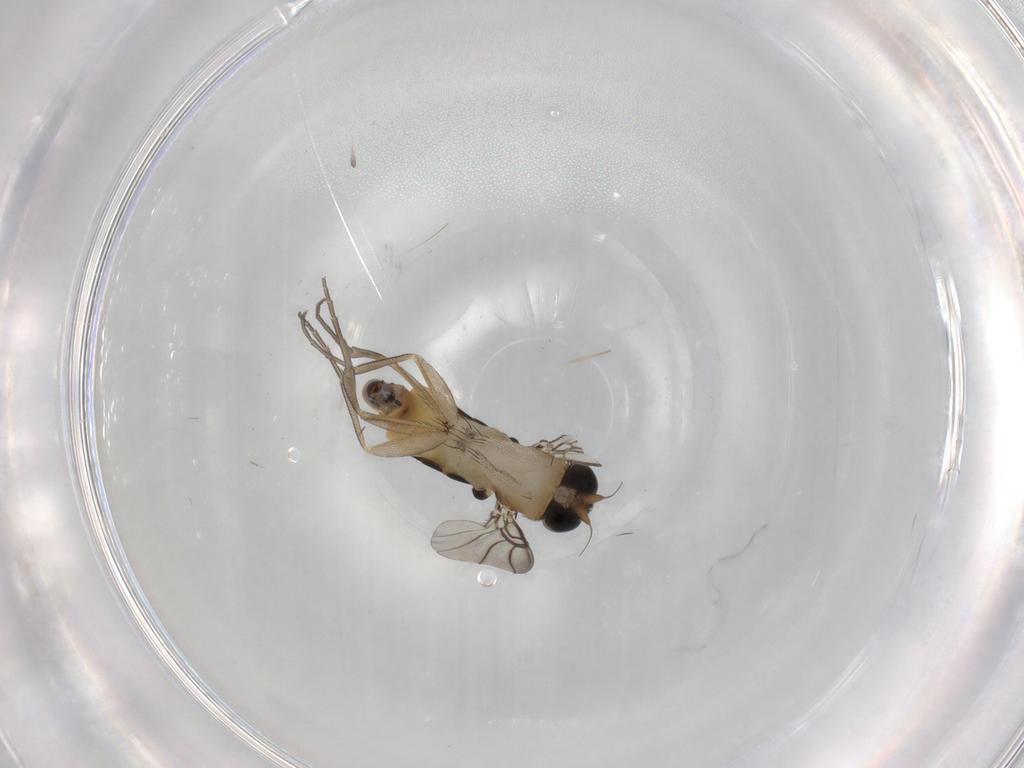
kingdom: Animalia
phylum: Arthropoda
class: Insecta
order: Diptera
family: Phoridae
